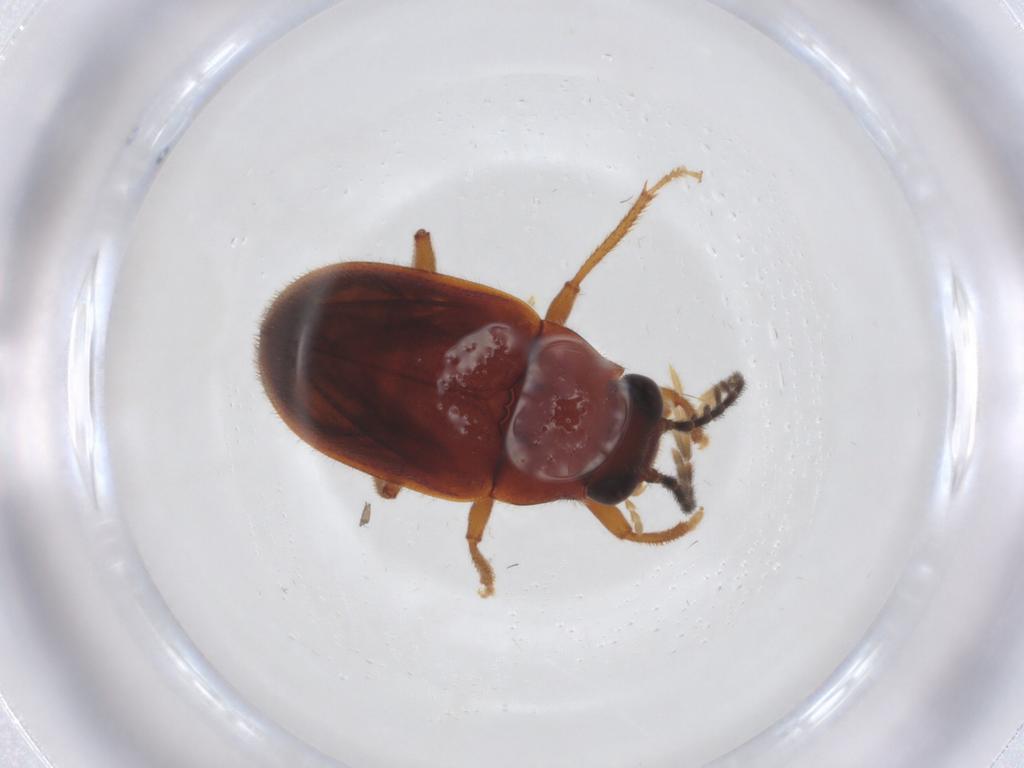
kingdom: Animalia
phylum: Arthropoda
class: Insecta
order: Coleoptera
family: Ptilodactylidae
